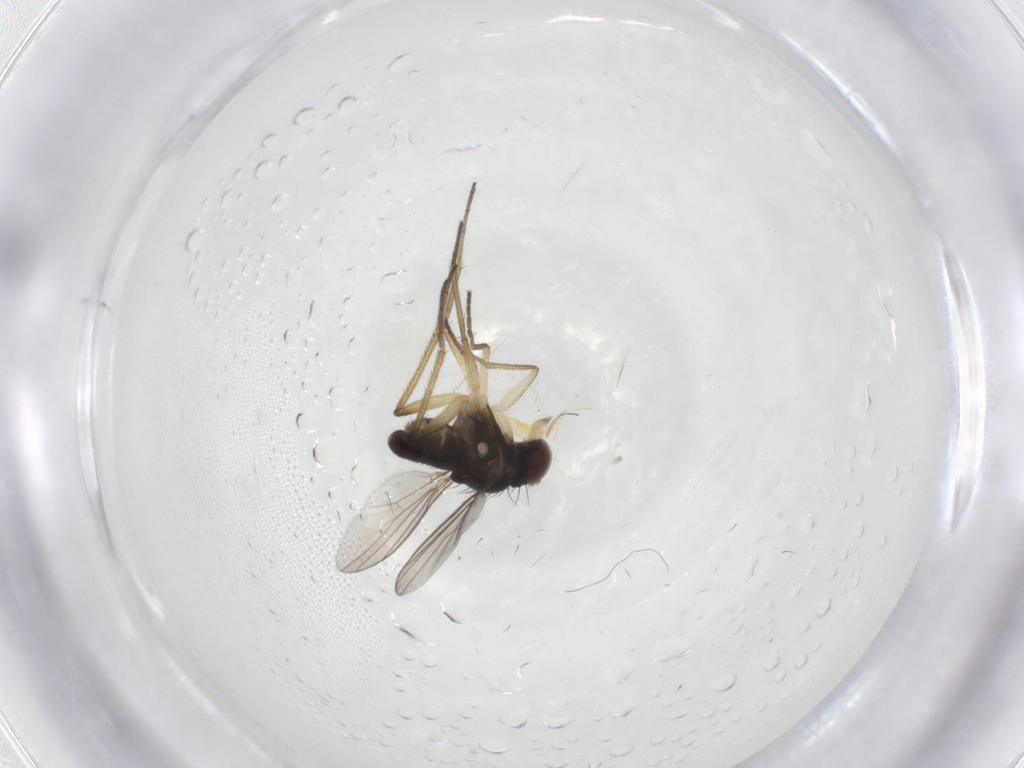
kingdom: Animalia
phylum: Arthropoda
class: Insecta
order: Diptera
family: Dolichopodidae
